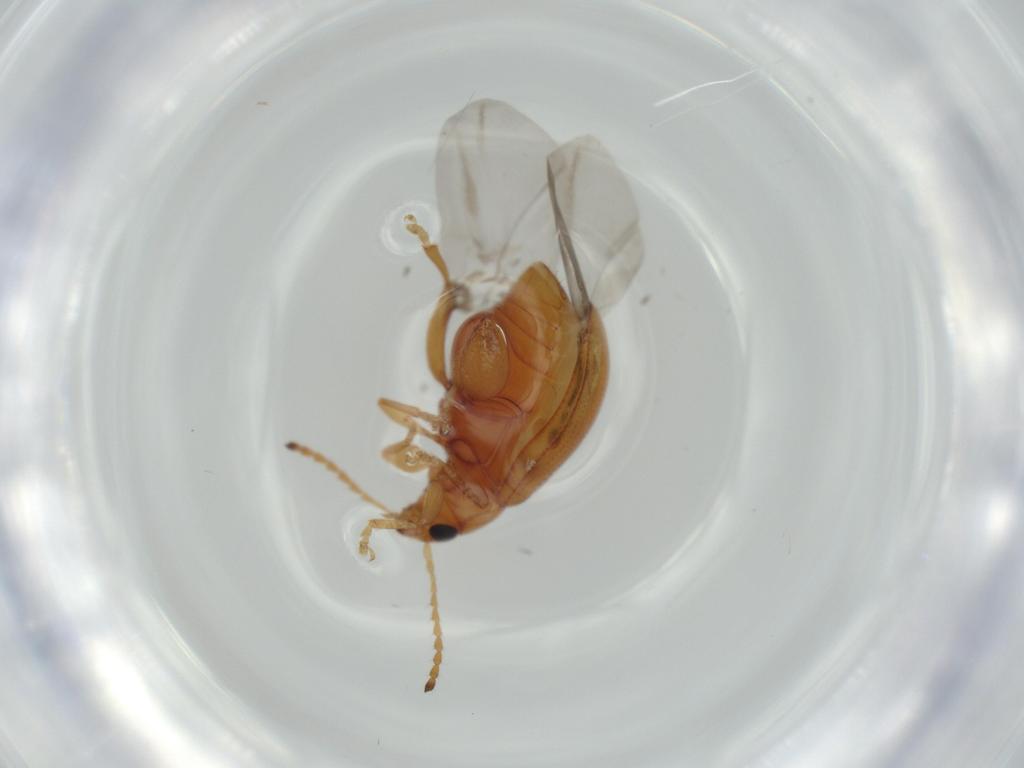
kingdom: Animalia
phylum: Arthropoda
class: Insecta
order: Coleoptera
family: Chrysomelidae
